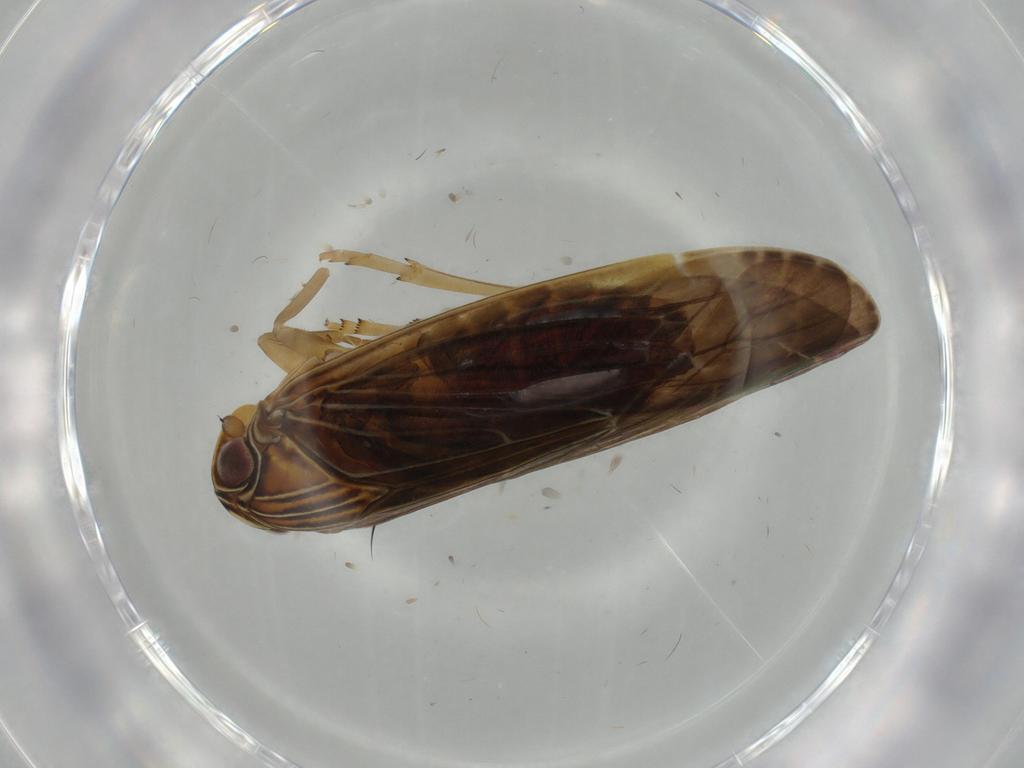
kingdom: Animalia
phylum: Arthropoda
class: Insecta
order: Hemiptera
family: Achilidae
